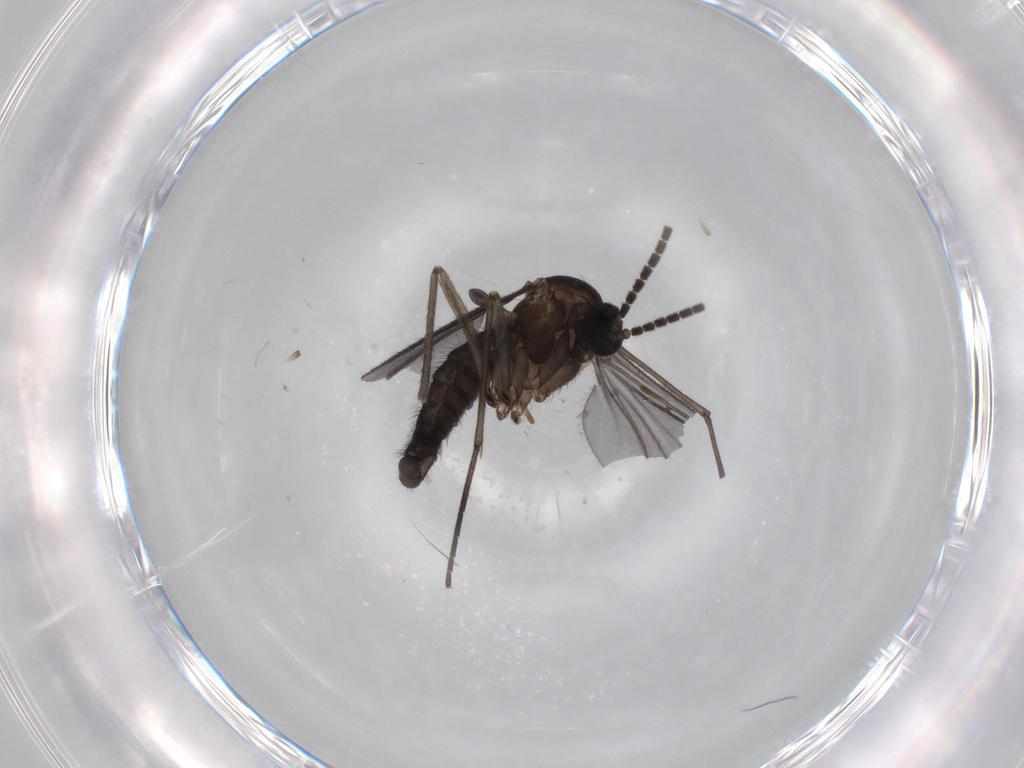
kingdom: Animalia
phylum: Arthropoda
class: Insecta
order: Diptera
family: Sciaridae
